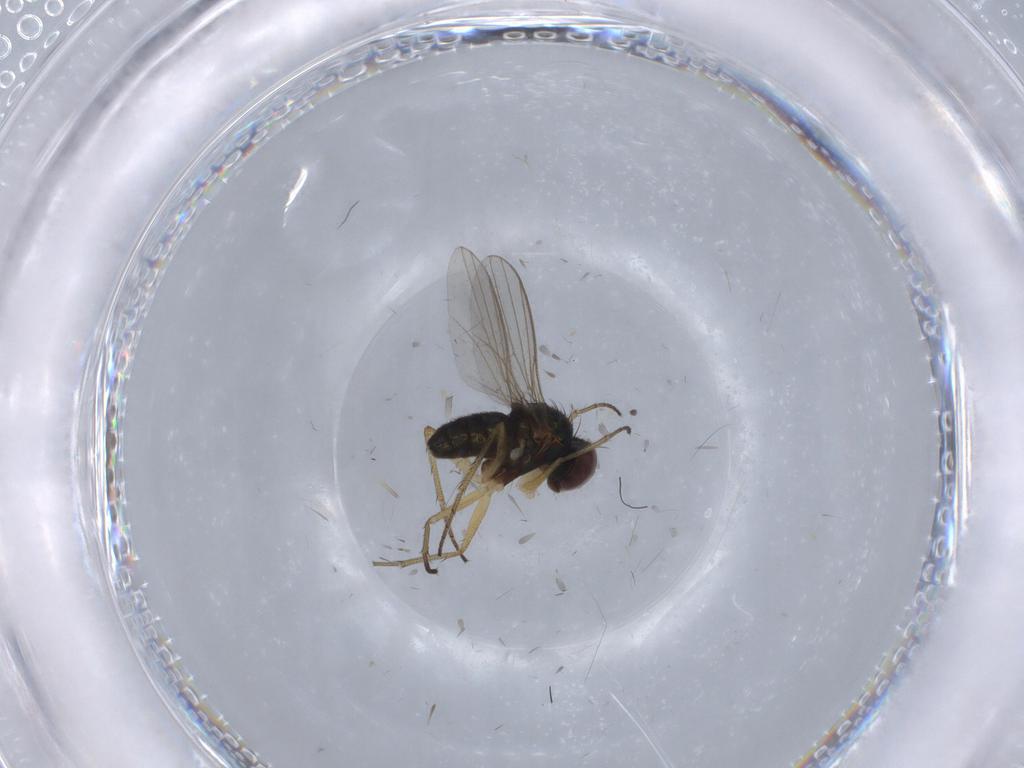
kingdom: Animalia
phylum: Arthropoda
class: Insecta
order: Diptera
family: Dolichopodidae
